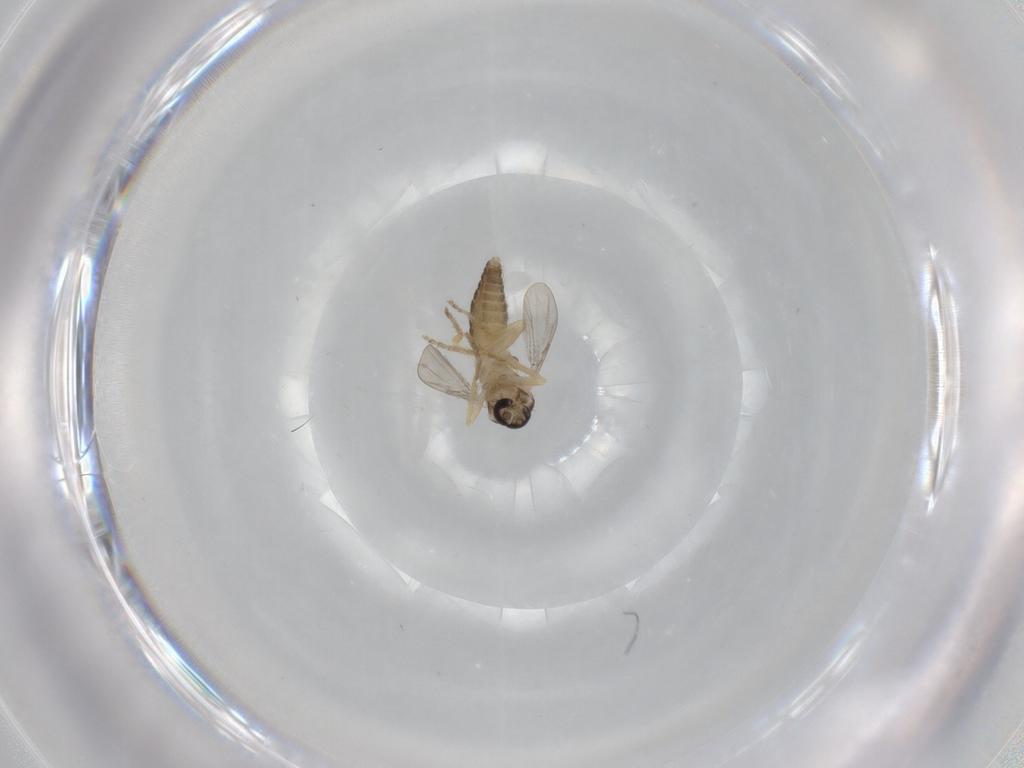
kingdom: Animalia
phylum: Arthropoda
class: Insecta
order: Diptera
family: Ceratopogonidae
